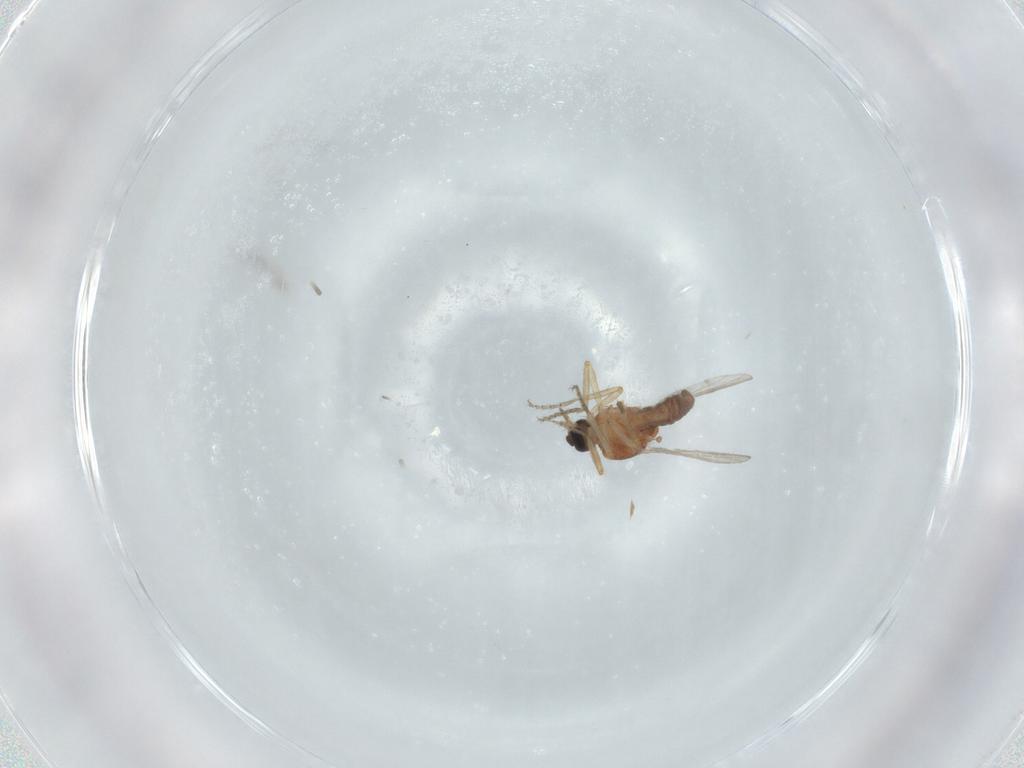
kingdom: Animalia
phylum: Arthropoda
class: Insecta
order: Diptera
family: Ceratopogonidae
